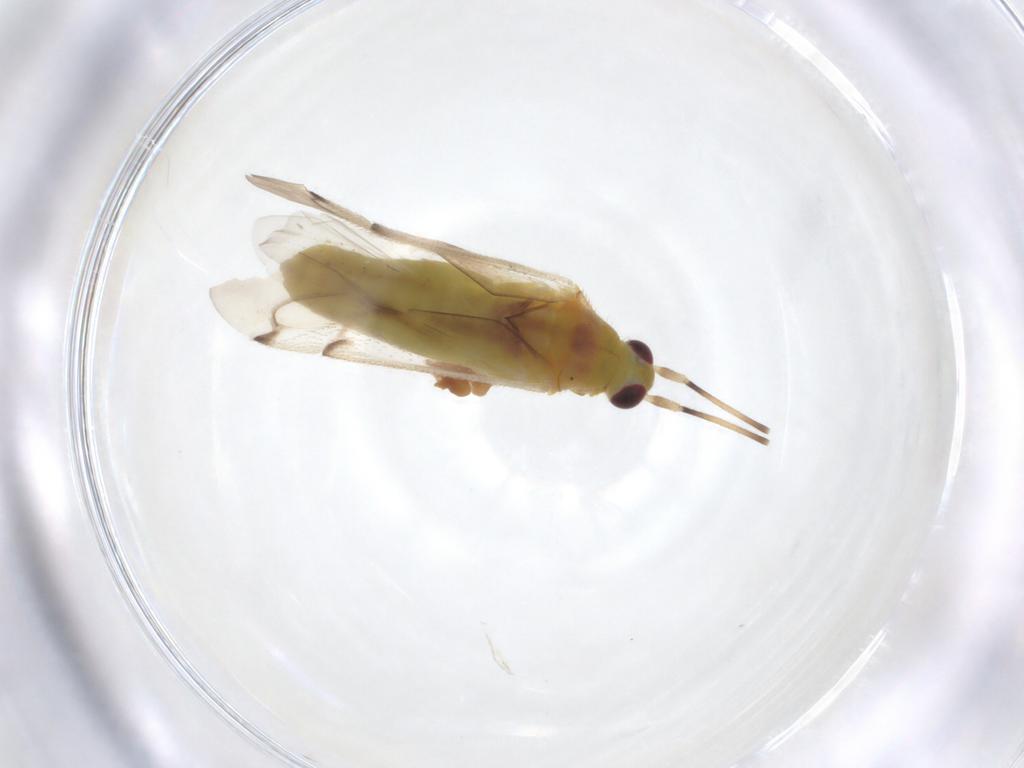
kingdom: Animalia
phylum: Arthropoda
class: Insecta
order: Hemiptera
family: Miridae
